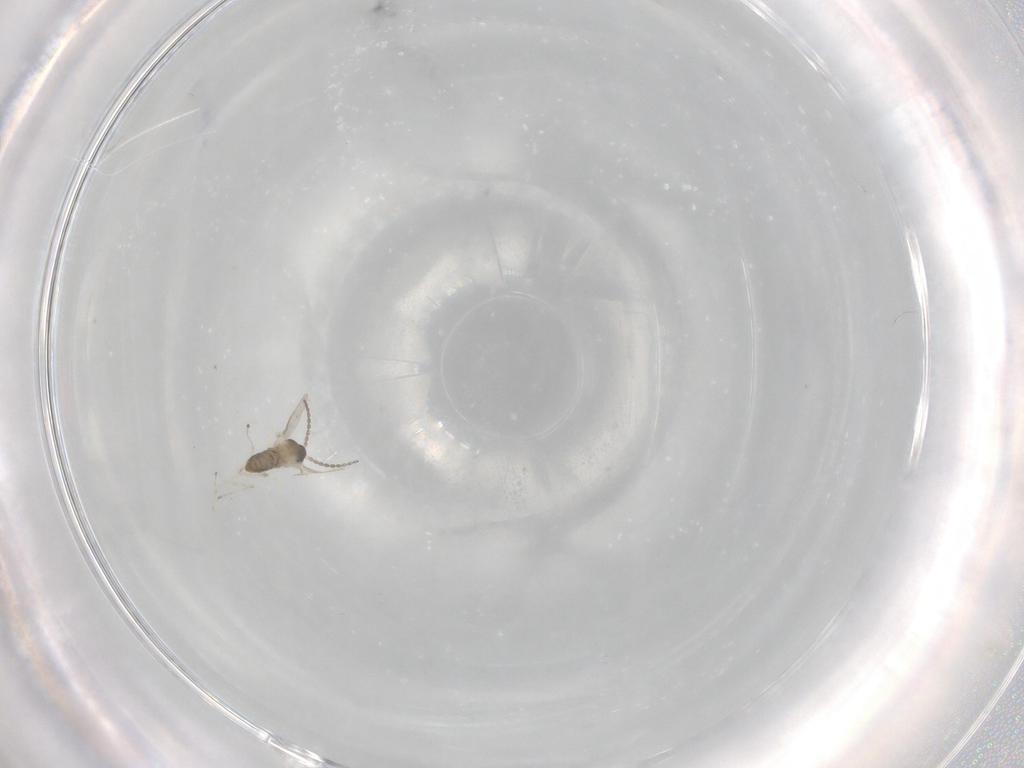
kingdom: Animalia
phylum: Arthropoda
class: Insecta
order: Diptera
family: Cecidomyiidae
